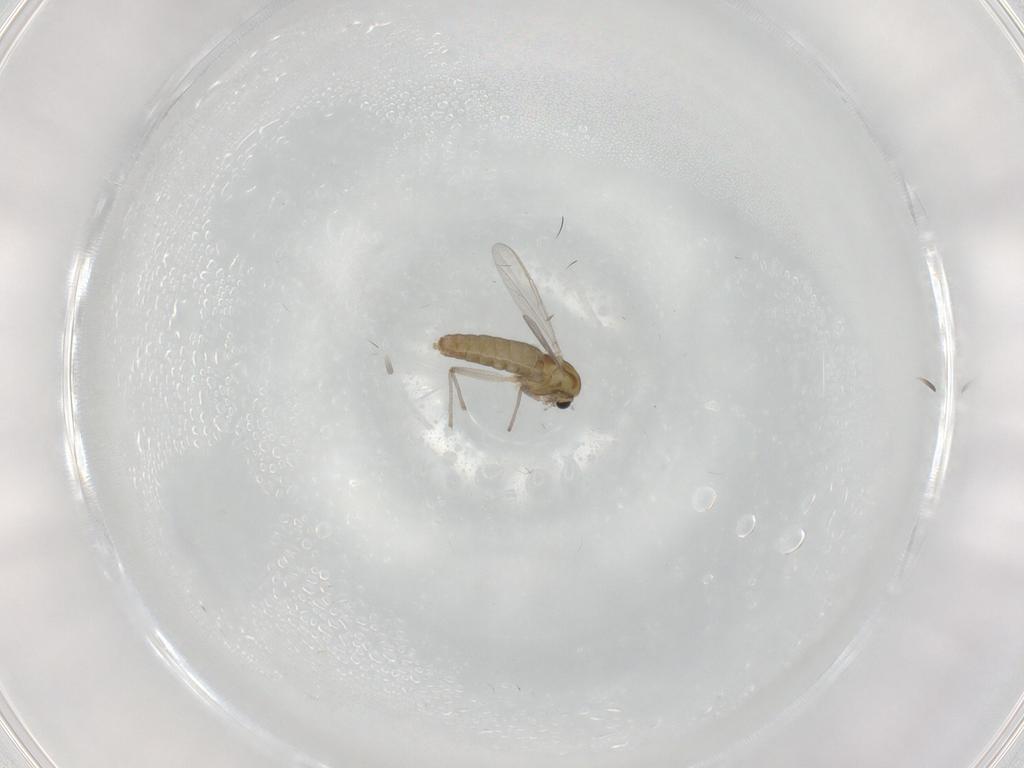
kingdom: Animalia
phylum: Arthropoda
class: Insecta
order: Diptera
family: Chironomidae
